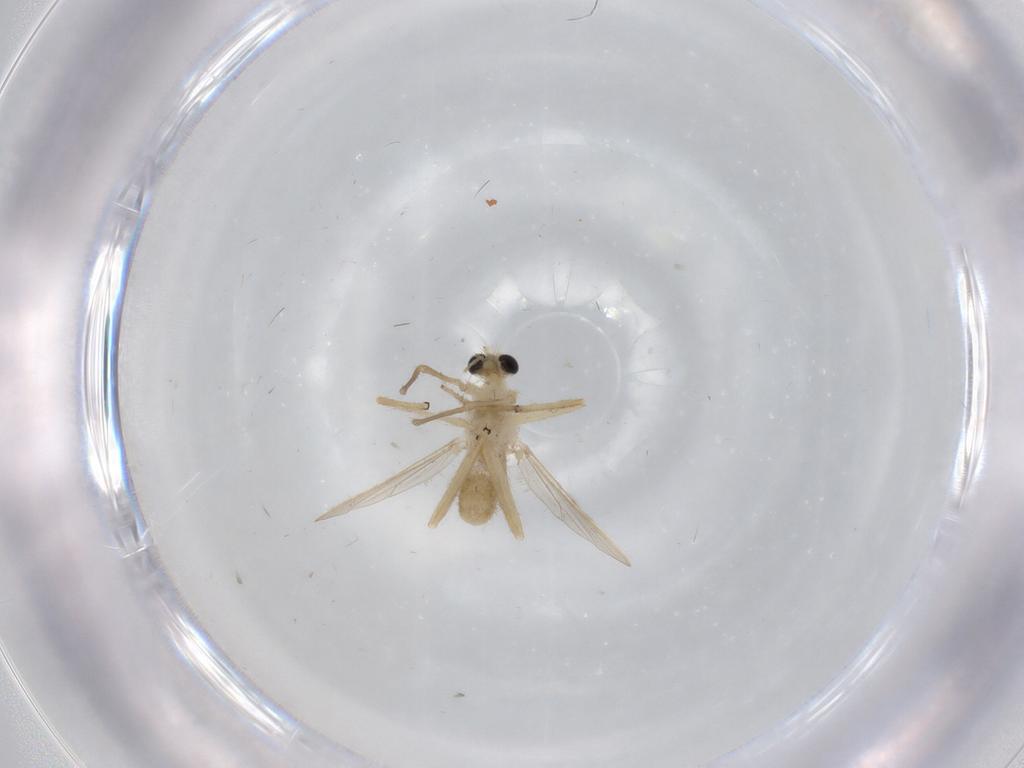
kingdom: Animalia
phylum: Arthropoda
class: Insecta
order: Diptera
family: Chironomidae
